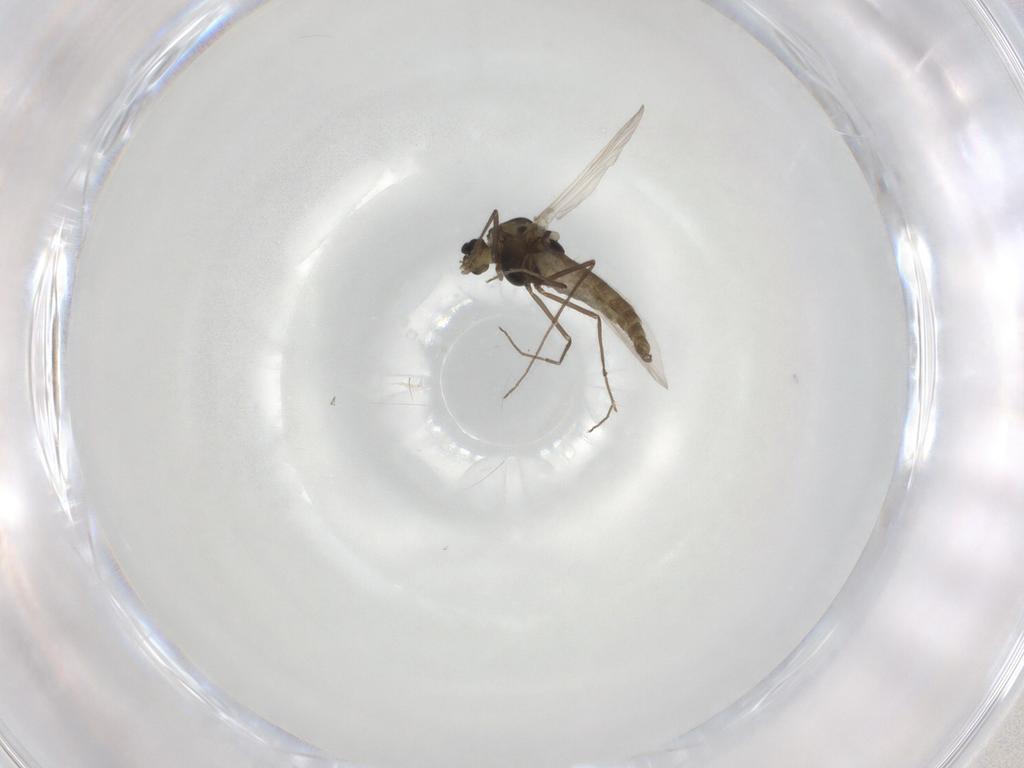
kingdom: Animalia
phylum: Arthropoda
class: Insecta
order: Diptera
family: Chironomidae
